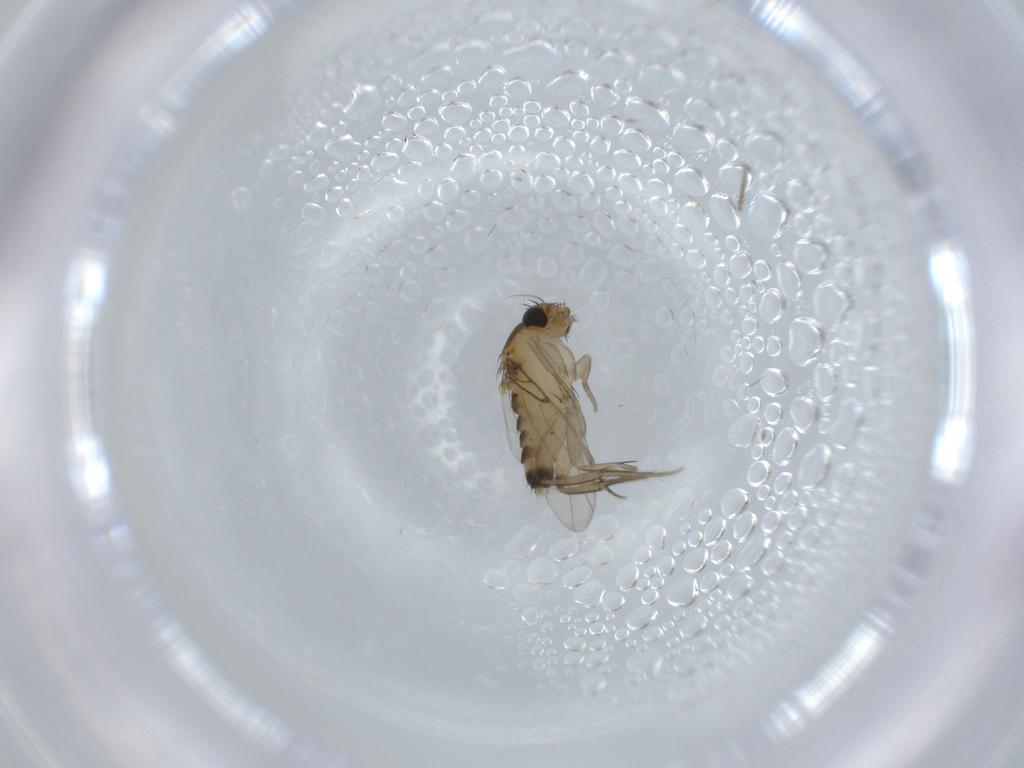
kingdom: Animalia
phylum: Arthropoda
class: Insecta
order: Diptera
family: Phoridae
